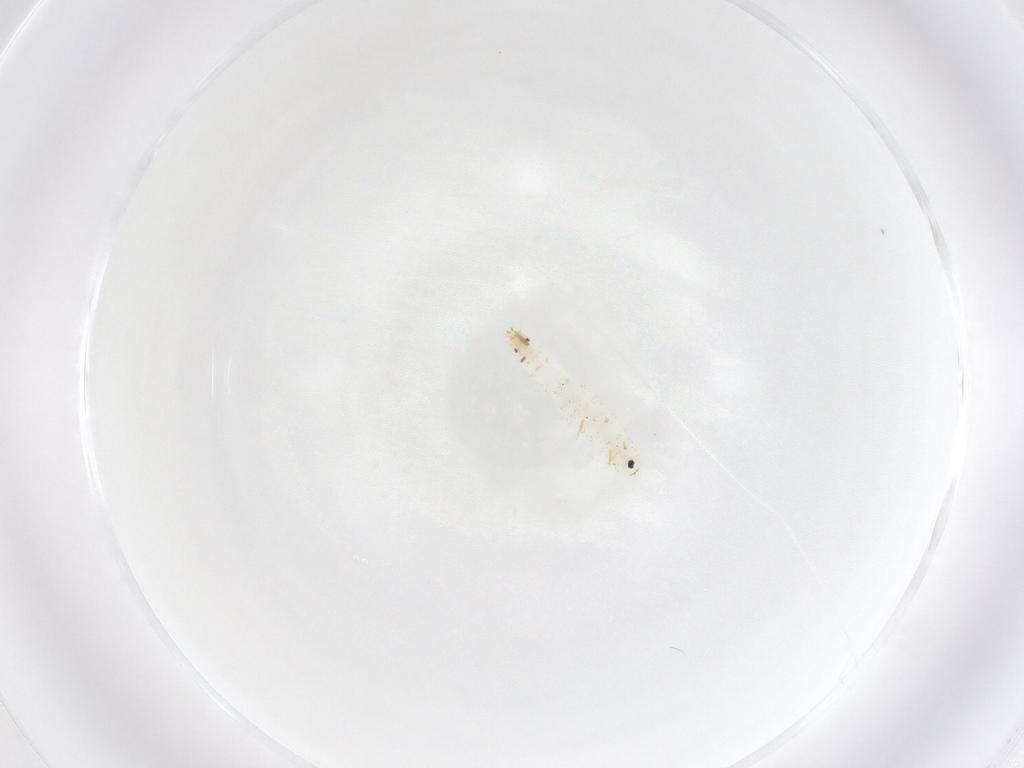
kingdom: Animalia
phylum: Arthropoda
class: Insecta
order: Diptera
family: Stratiomyidae
